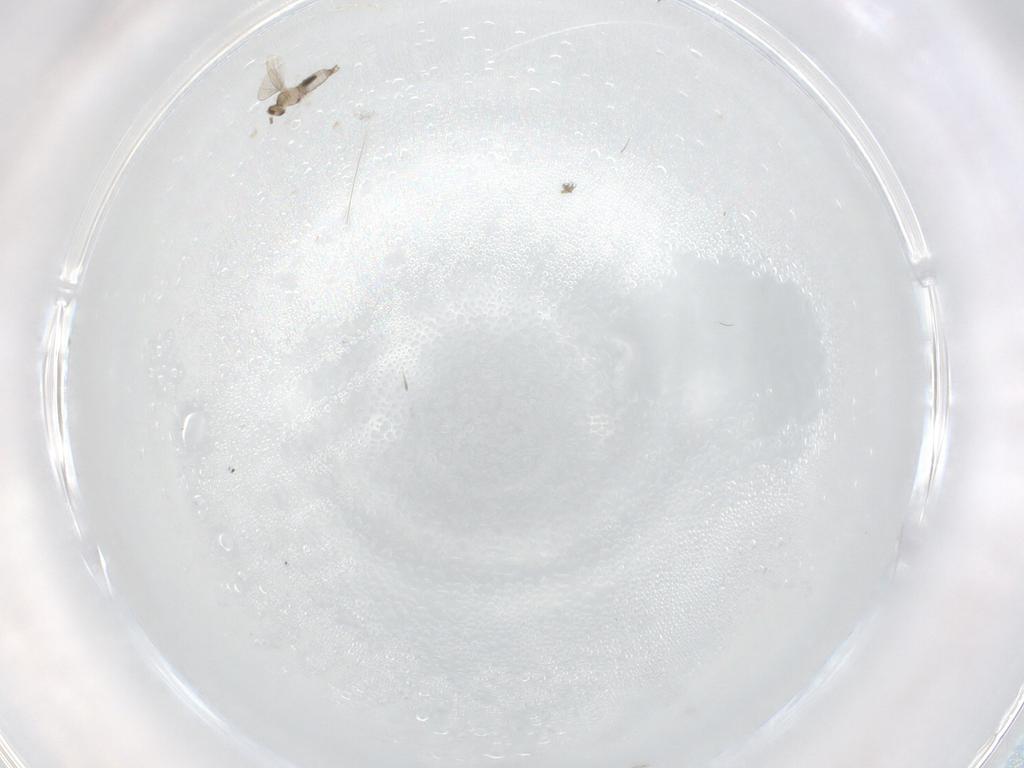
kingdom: Animalia
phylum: Arthropoda
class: Insecta
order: Diptera
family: Cecidomyiidae
